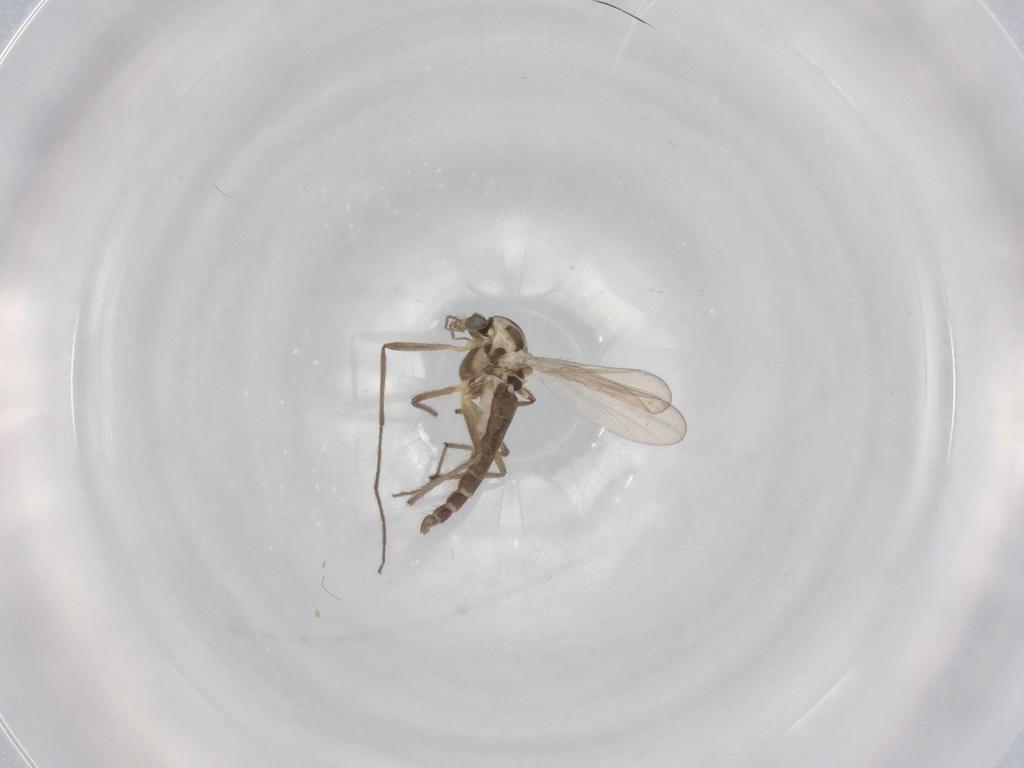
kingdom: Animalia
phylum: Arthropoda
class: Insecta
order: Diptera
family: Chironomidae
